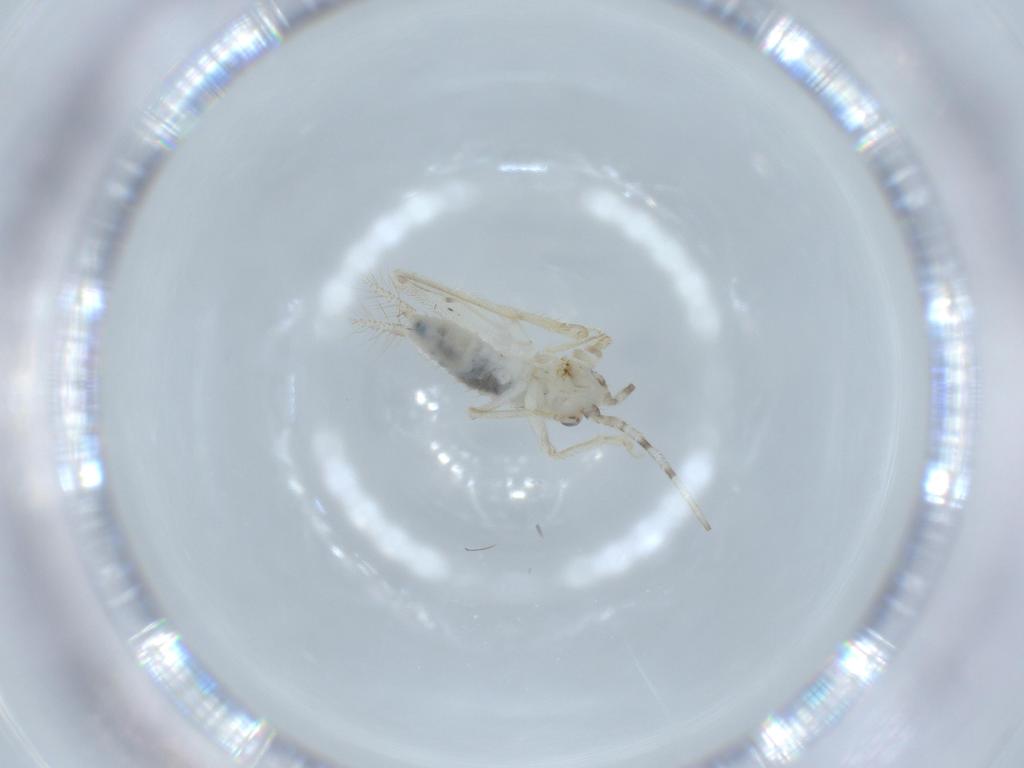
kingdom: Animalia
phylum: Arthropoda
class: Insecta
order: Orthoptera
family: Trigonidiidae
